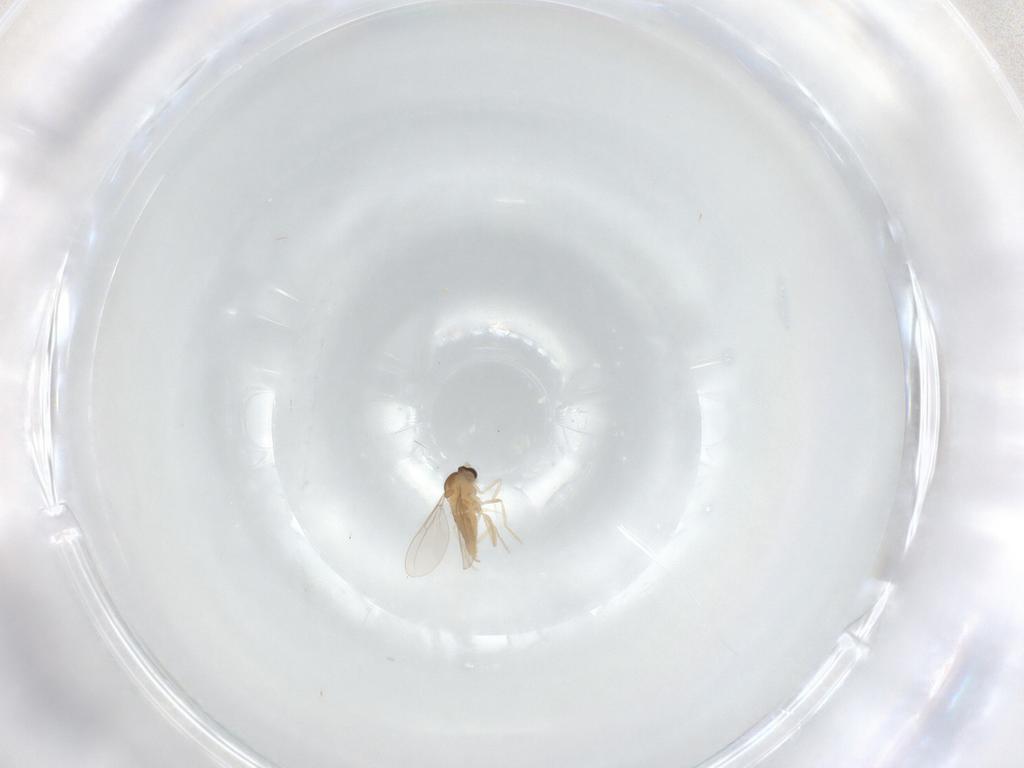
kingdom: Animalia
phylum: Arthropoda
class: Insecta
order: Diptera
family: Cecidomyiidae
